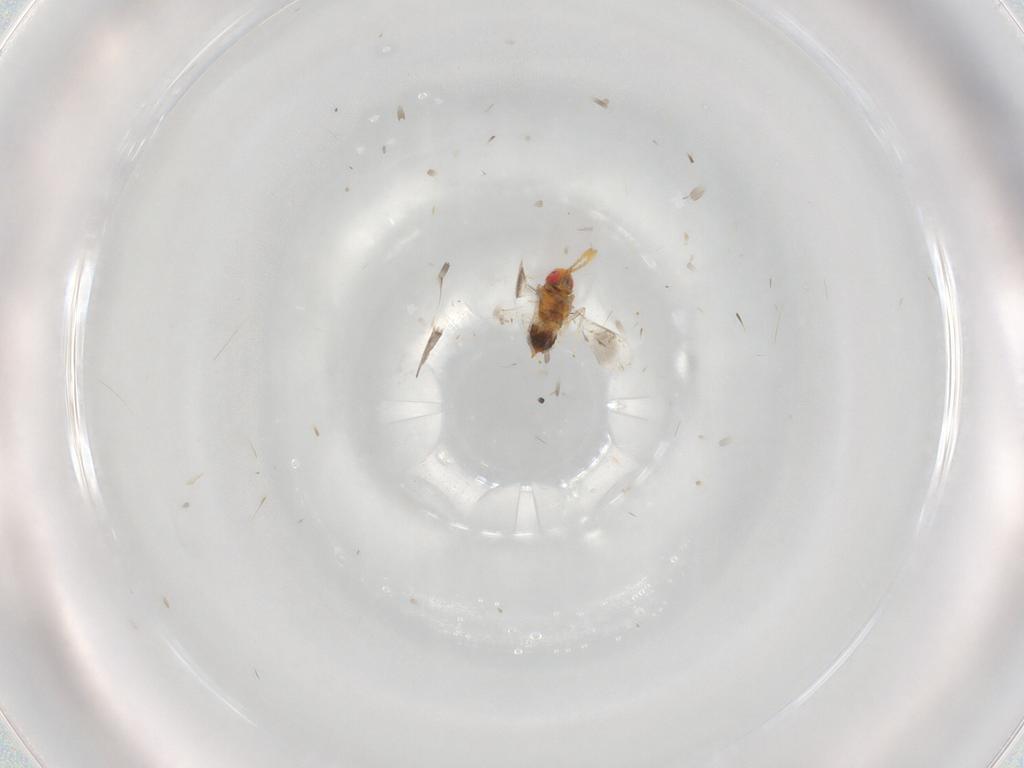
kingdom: Animalia
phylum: Arthropoda
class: Insecta
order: Hymenoptera
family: Aphelinidae
